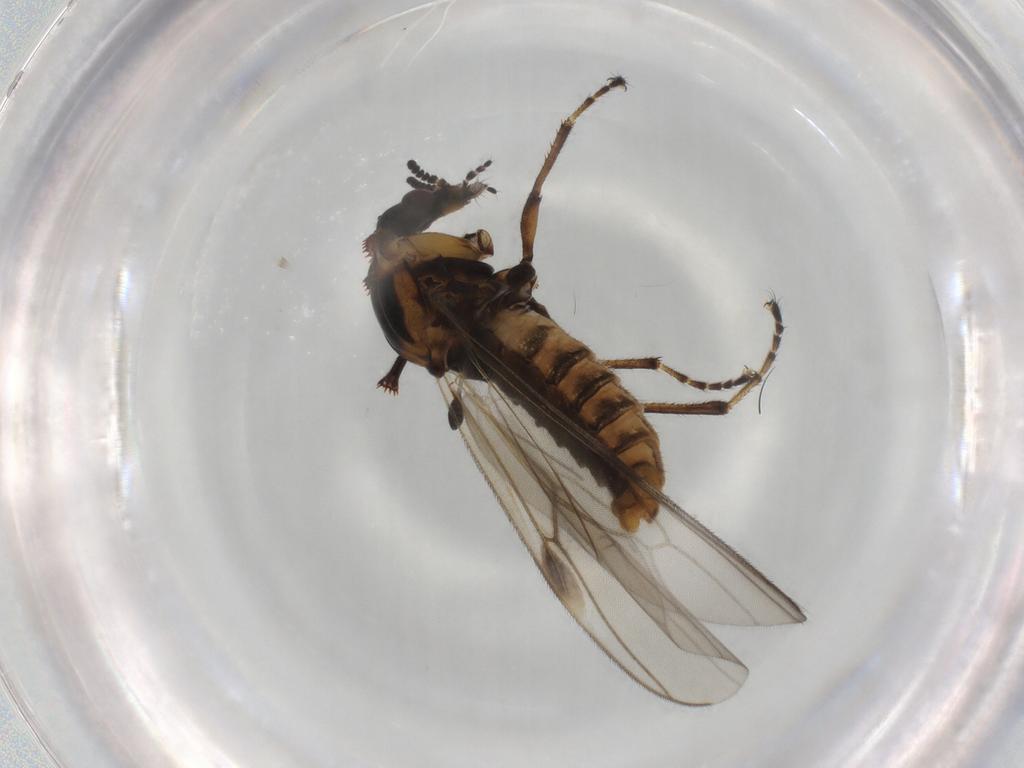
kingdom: Animalia
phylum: Arthropoda
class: Insecta
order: Diptera
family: Bibionidae
